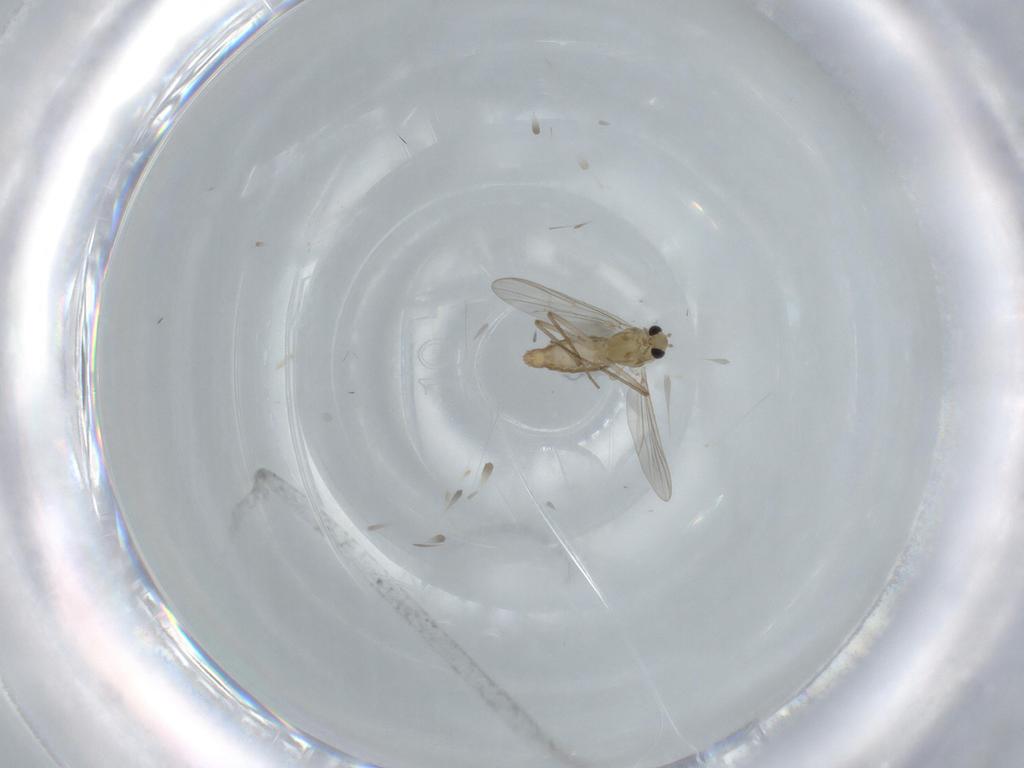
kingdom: Animalia
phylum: Arthropoda
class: Insecta
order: Diptera
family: Chironomidae
